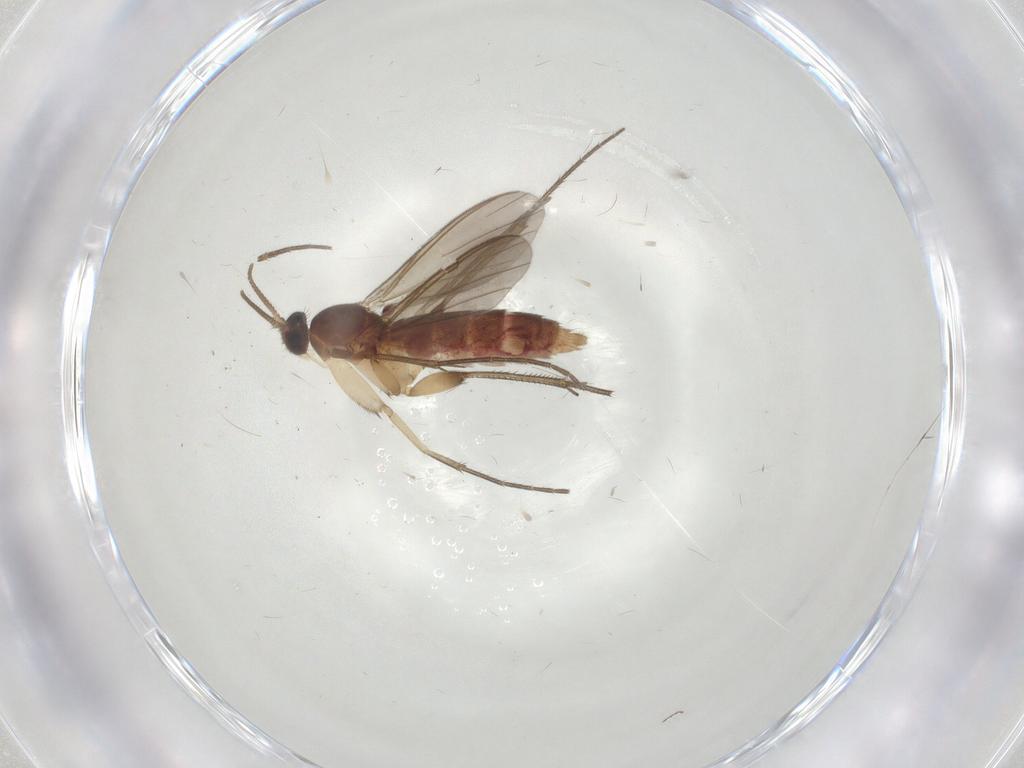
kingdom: Animalia
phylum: Arthropoda
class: Insecta
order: Diptera
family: Mycetophilidae
